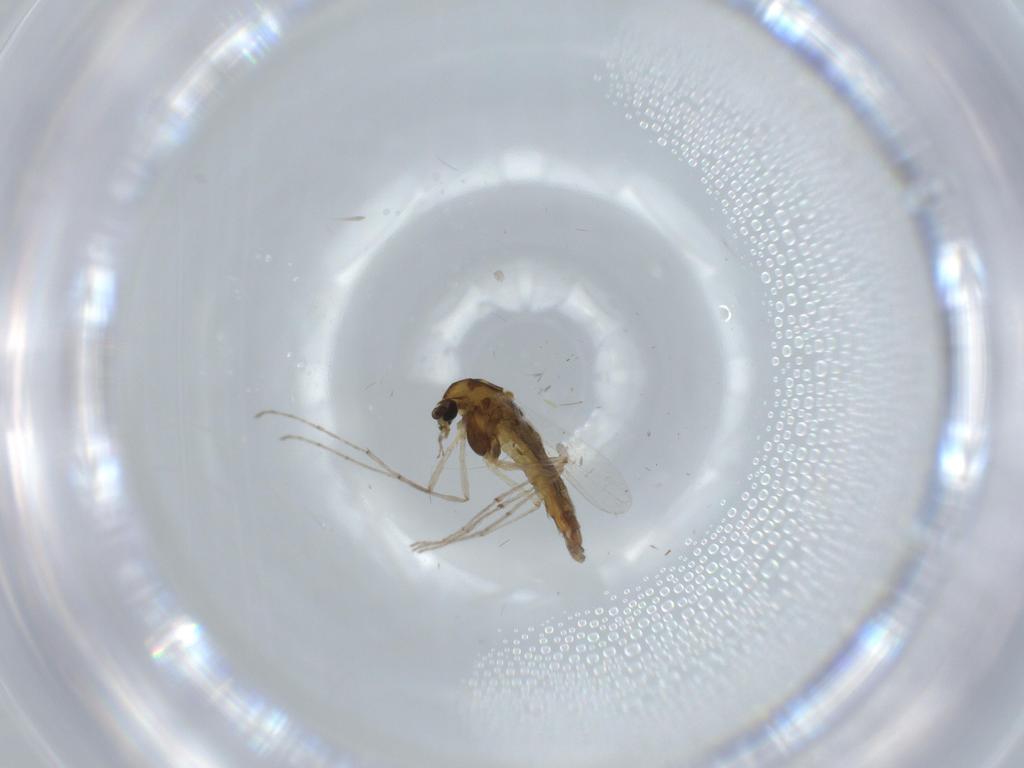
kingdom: Animalia
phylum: Arthropoda
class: Insecta
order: Diptera
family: Chironomidae
